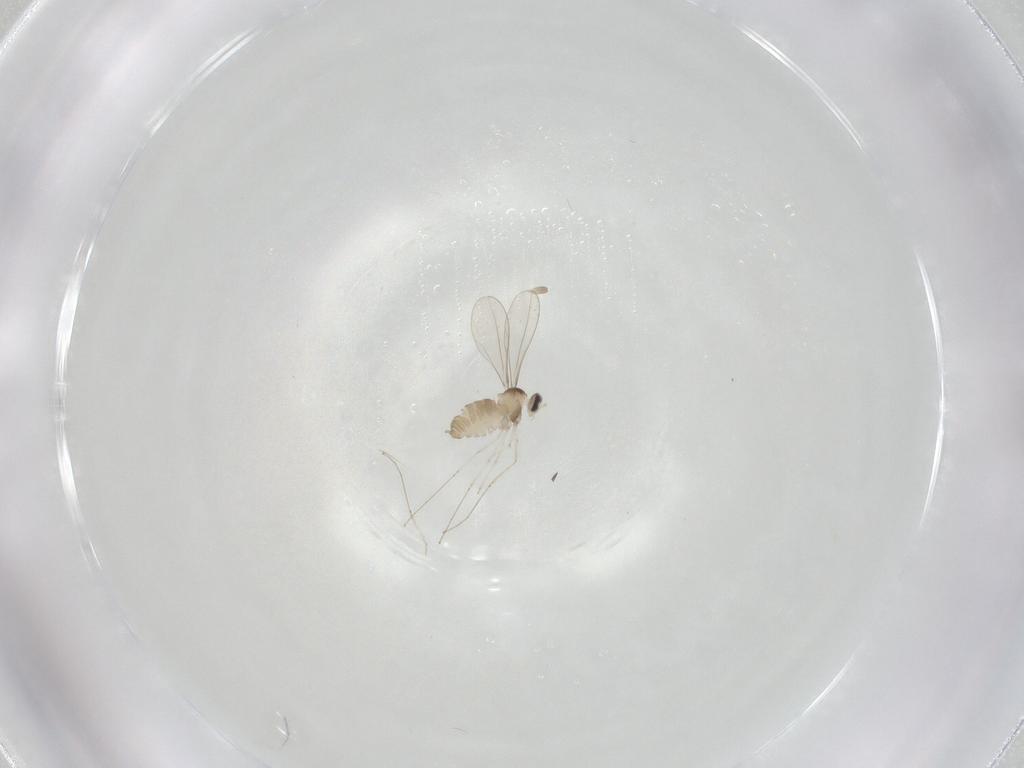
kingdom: Animalia
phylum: Arthropoda
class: Insecta
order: Diptera
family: Cecidomyiidae
